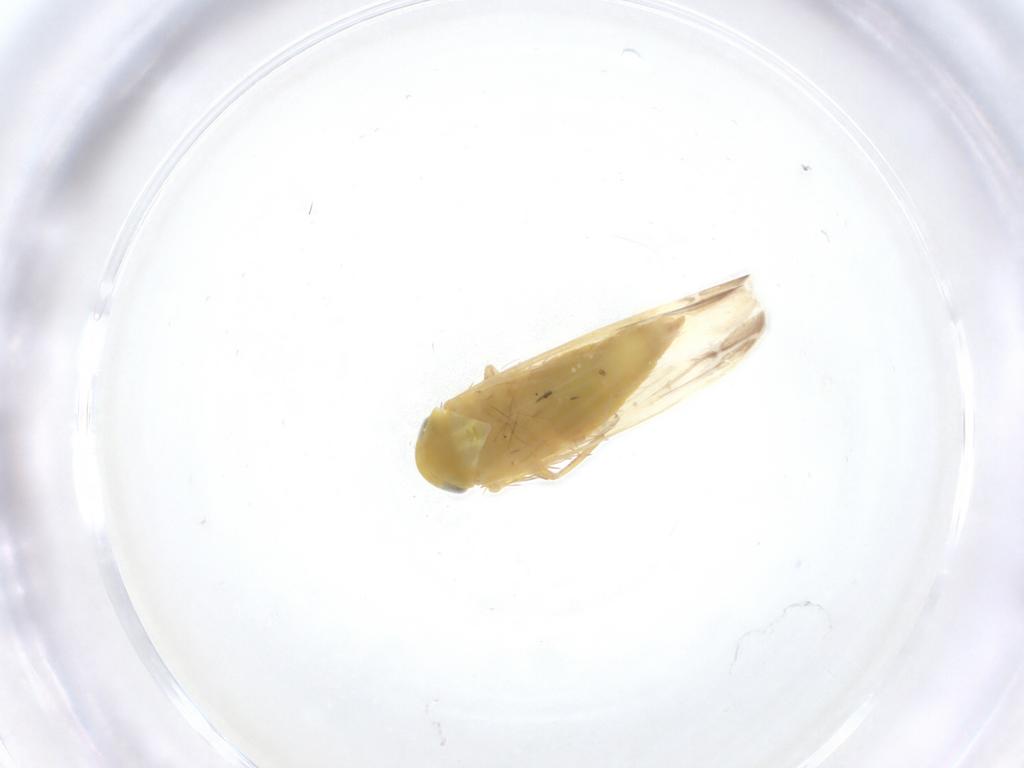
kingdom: Animalia
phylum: Arthropoda
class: Insecta
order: Hemiptera
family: Cicadellidae
